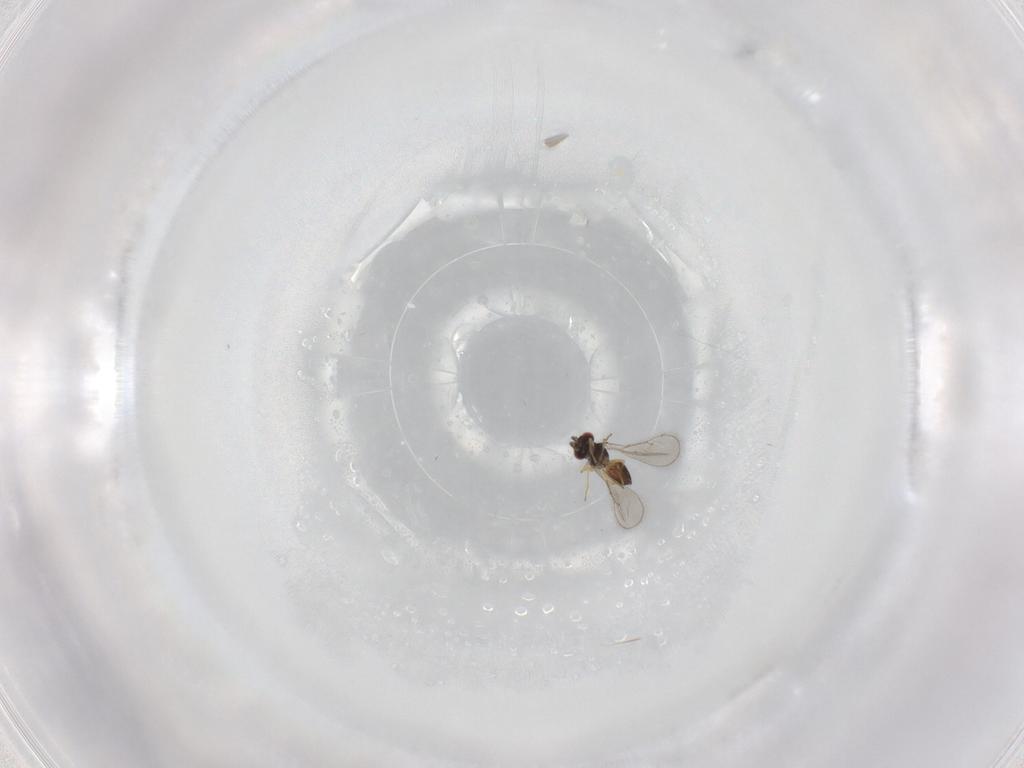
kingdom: Animalia
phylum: Arthropoda
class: Insecta
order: Hymenoptera
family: Eulophidae
